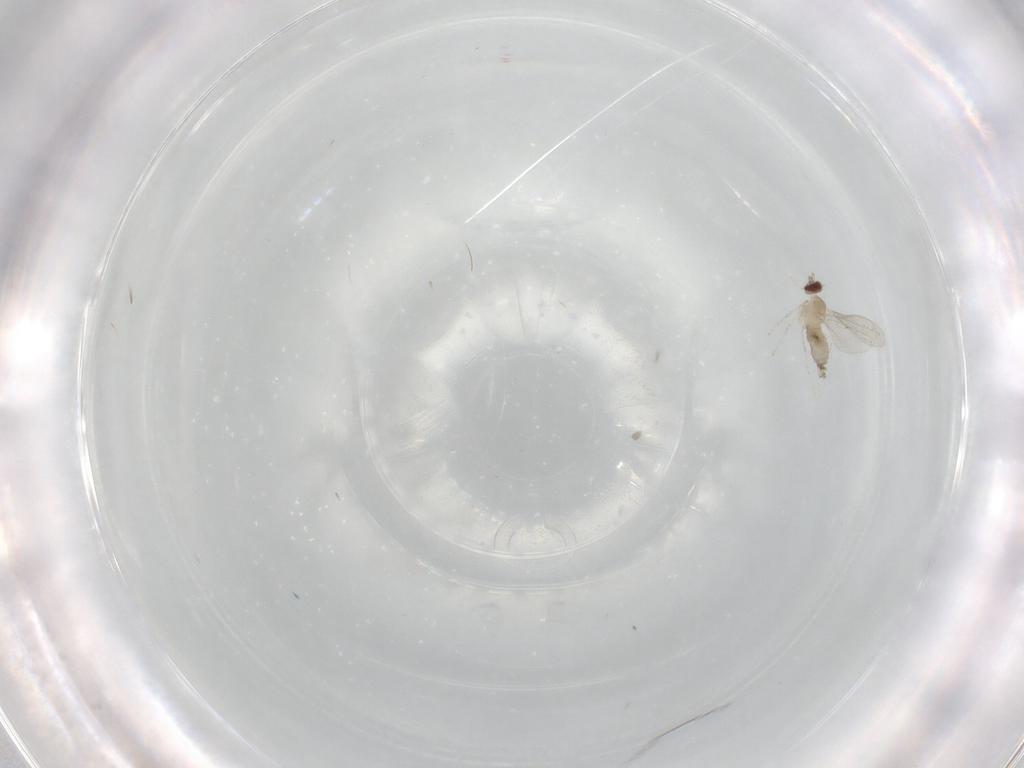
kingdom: Animalia
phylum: Arthropoda
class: Insecta
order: Diptera
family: Cecidomyiidae
